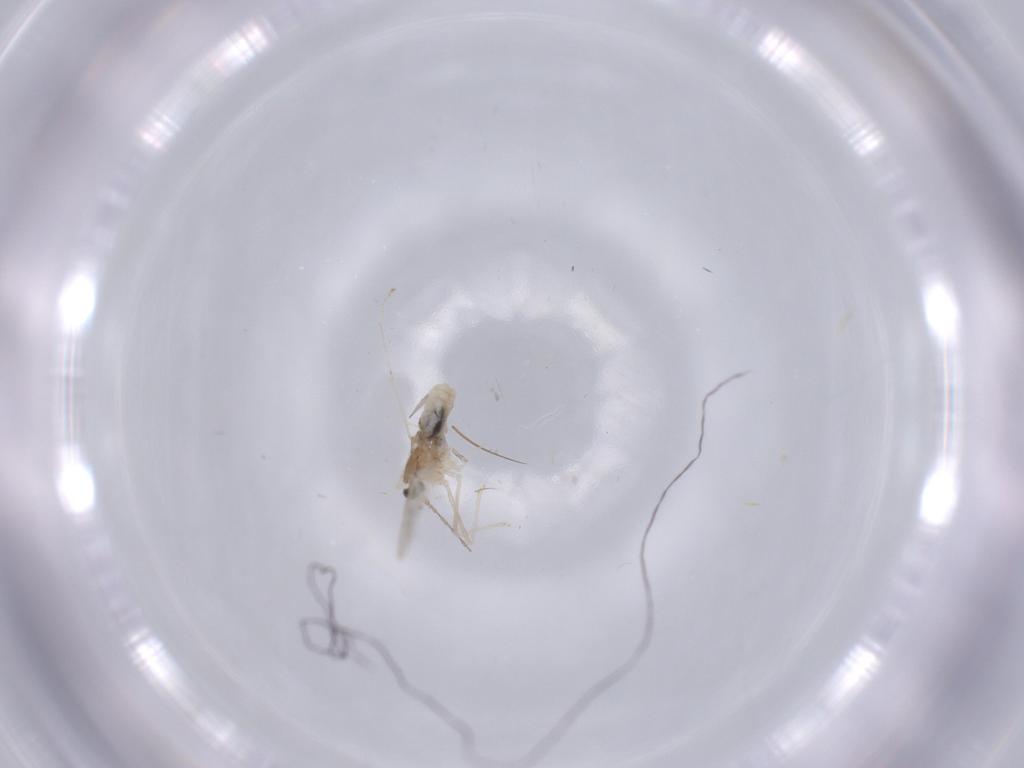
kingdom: Animalia
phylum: Arthropoda
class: Insecta
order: Diptera
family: Cecidomyiidae
